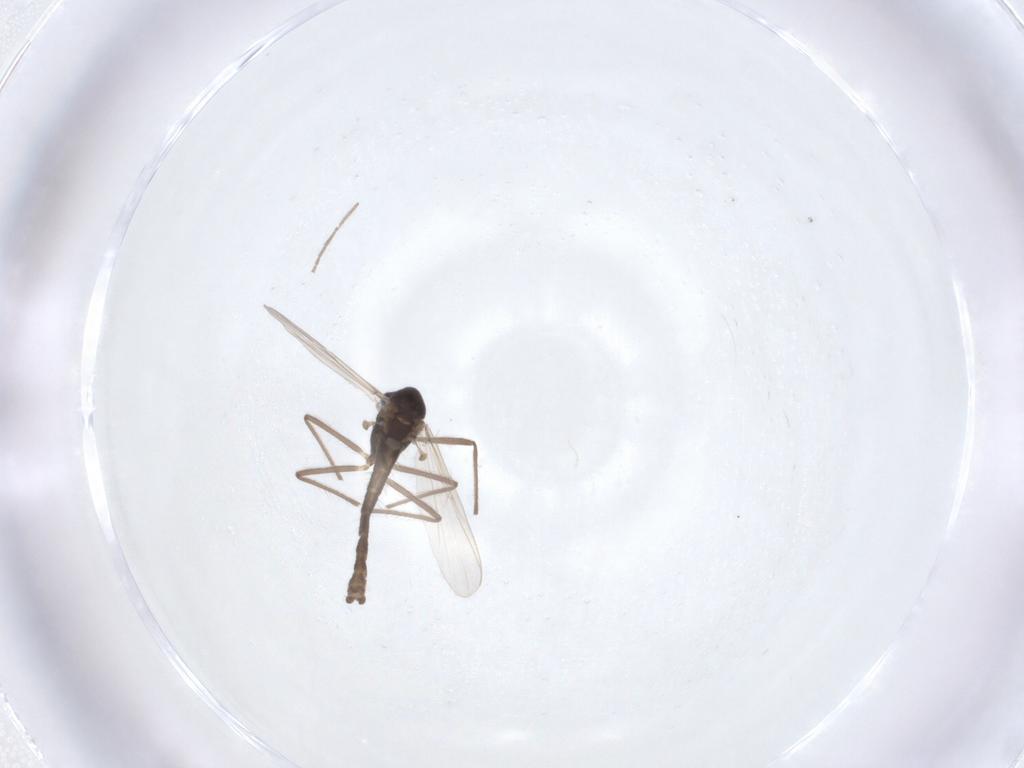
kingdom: Animalia
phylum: Arthropoda
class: Insecta
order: Diptera
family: Chironomidae
